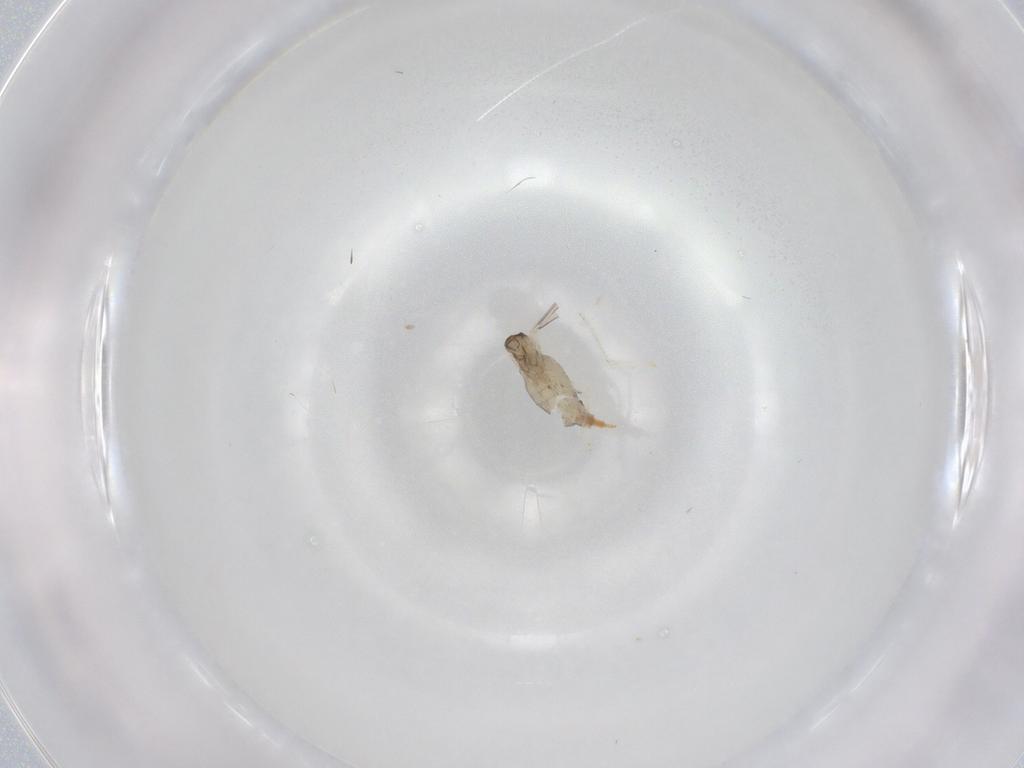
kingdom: Animalia
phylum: Arthropoda
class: Insecta
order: Diptera
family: Cecidomyiidae
